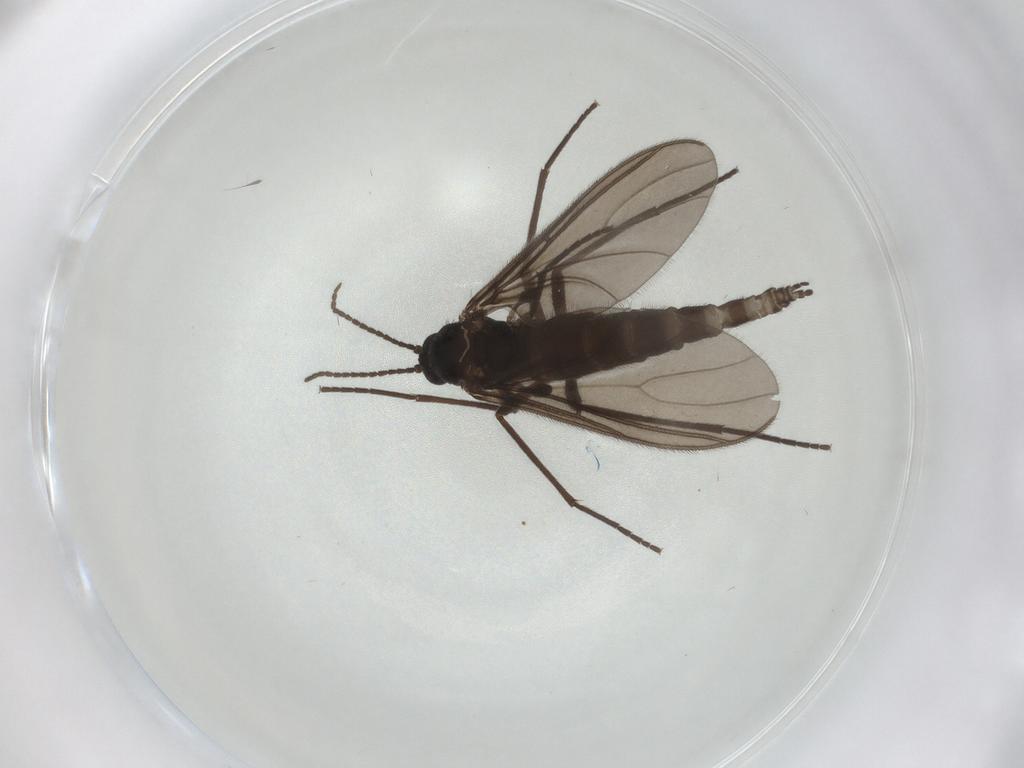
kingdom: Animalia
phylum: Arthropoda
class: Insecta
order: Diptera
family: Sciaridae
